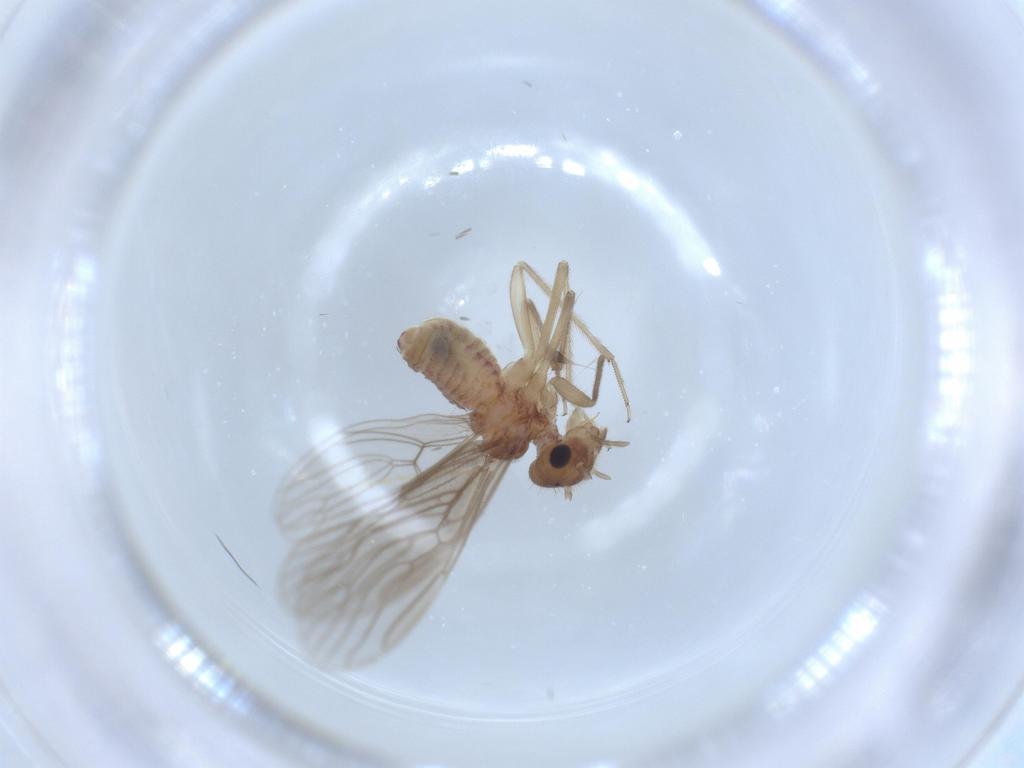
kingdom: Animalia
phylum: Arthropoda
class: Insecta
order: Psocodea
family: Cladiopsocidae
